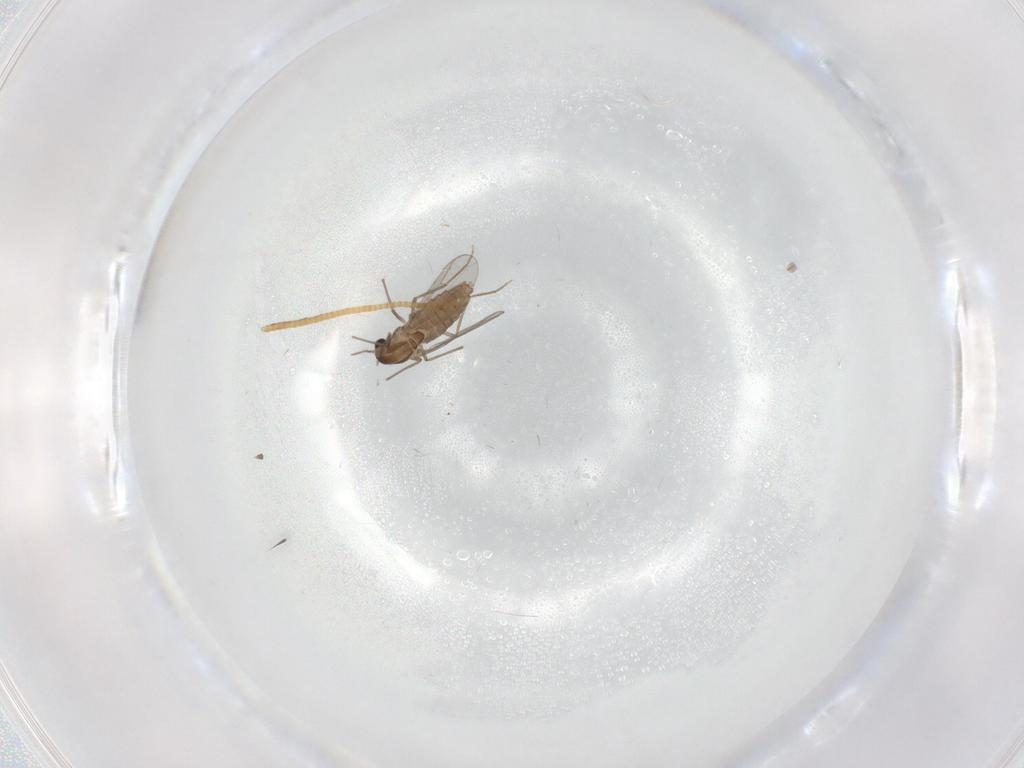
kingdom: Animalia
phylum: Arthropoda
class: Insecta
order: Diptera
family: Chironomidae
